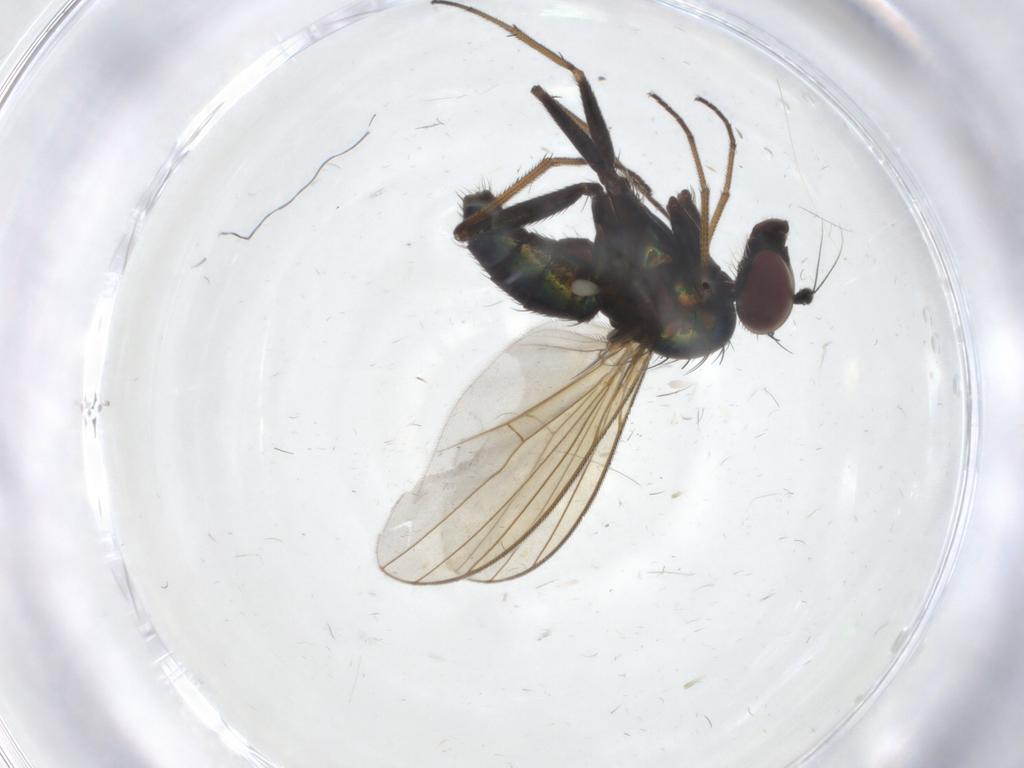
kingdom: Animalia
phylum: Arthropoda
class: Insecta
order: Diptera
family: Dolichopodidae
